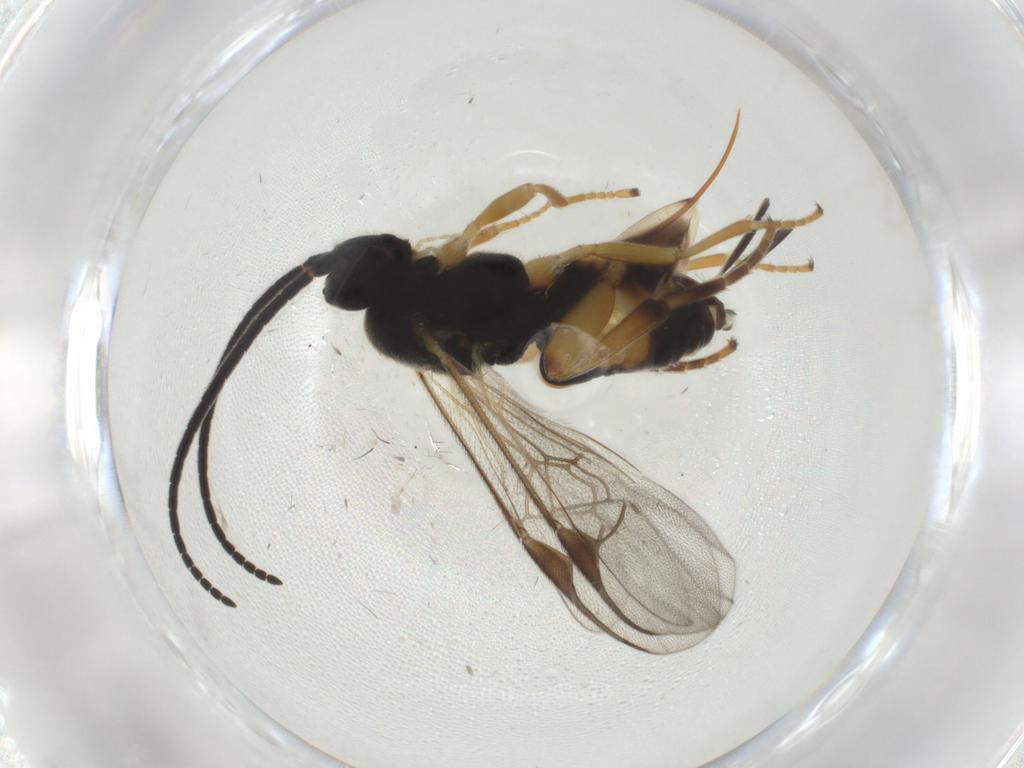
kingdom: Animalia
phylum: Arthropoda
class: Insecta
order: Hymenoptera
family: Braconidae
